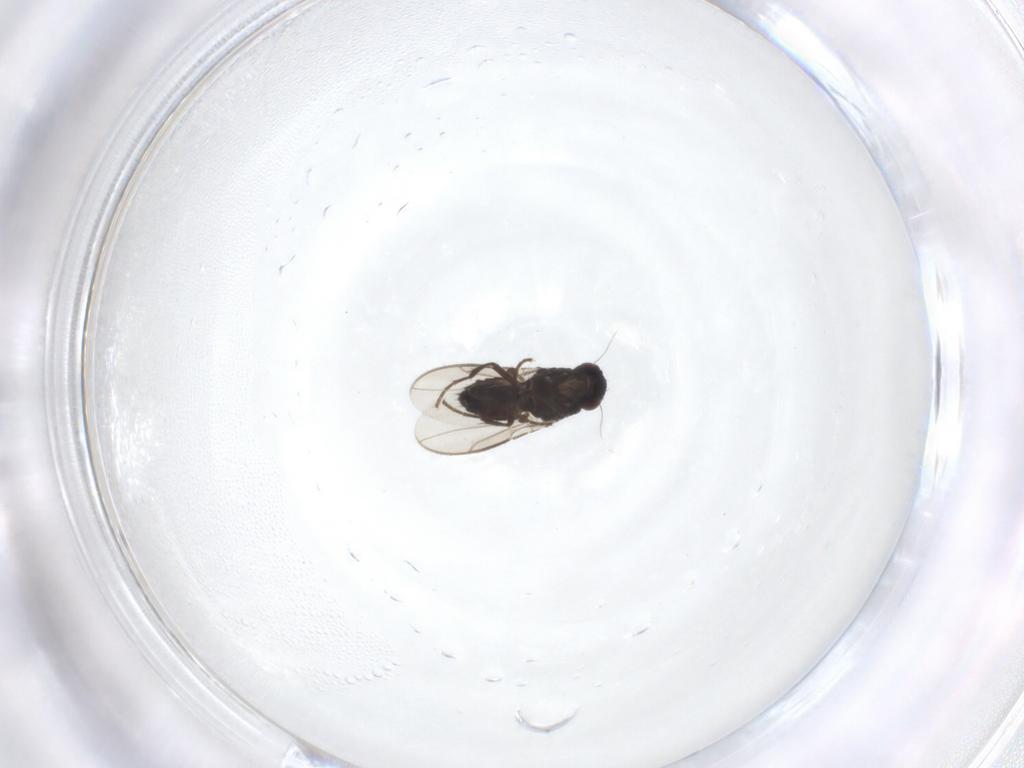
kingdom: Animalia
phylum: Arthropoda
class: Insecta
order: Diptera
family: Sphaeroceridae
